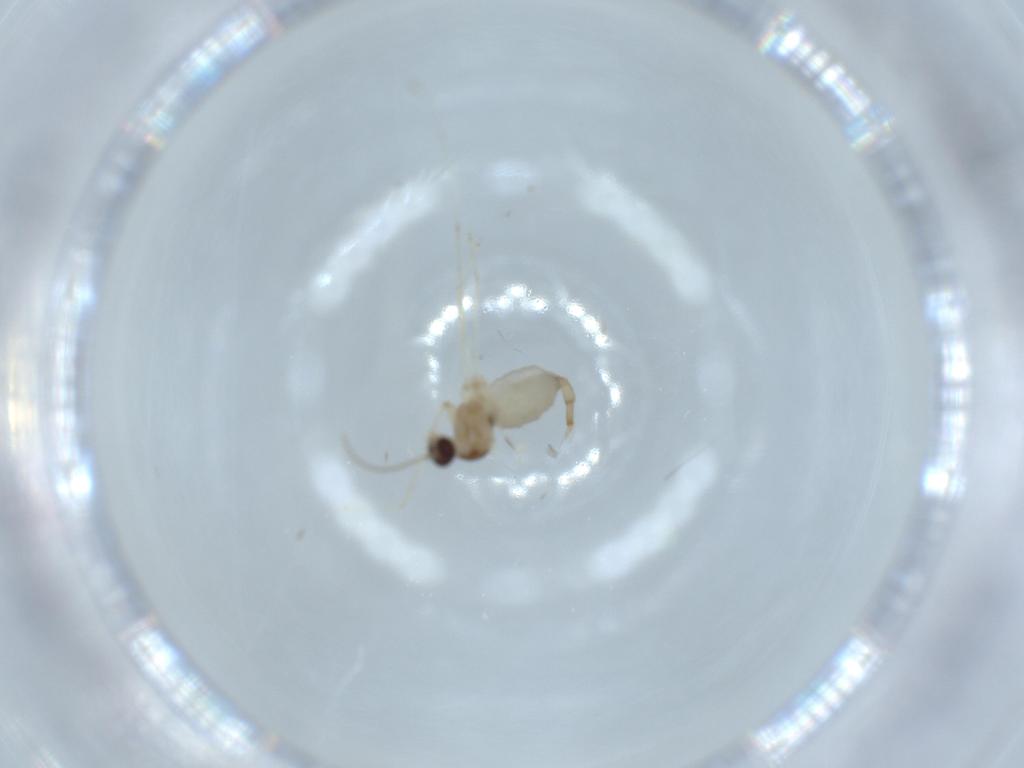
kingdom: Animalia
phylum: Arthropoda
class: Insecta
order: Diptera
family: Cecidomyiidae
